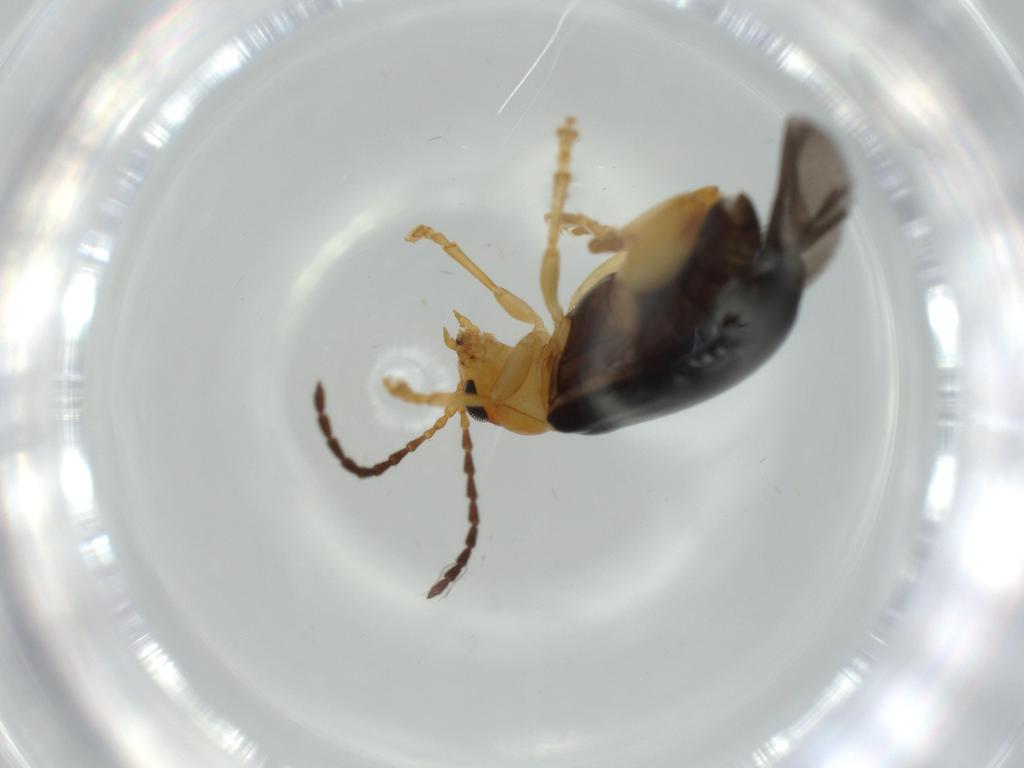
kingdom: Animalia
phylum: Arthropoda
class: Insecta
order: Coleoptera
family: Chrysomelidae
